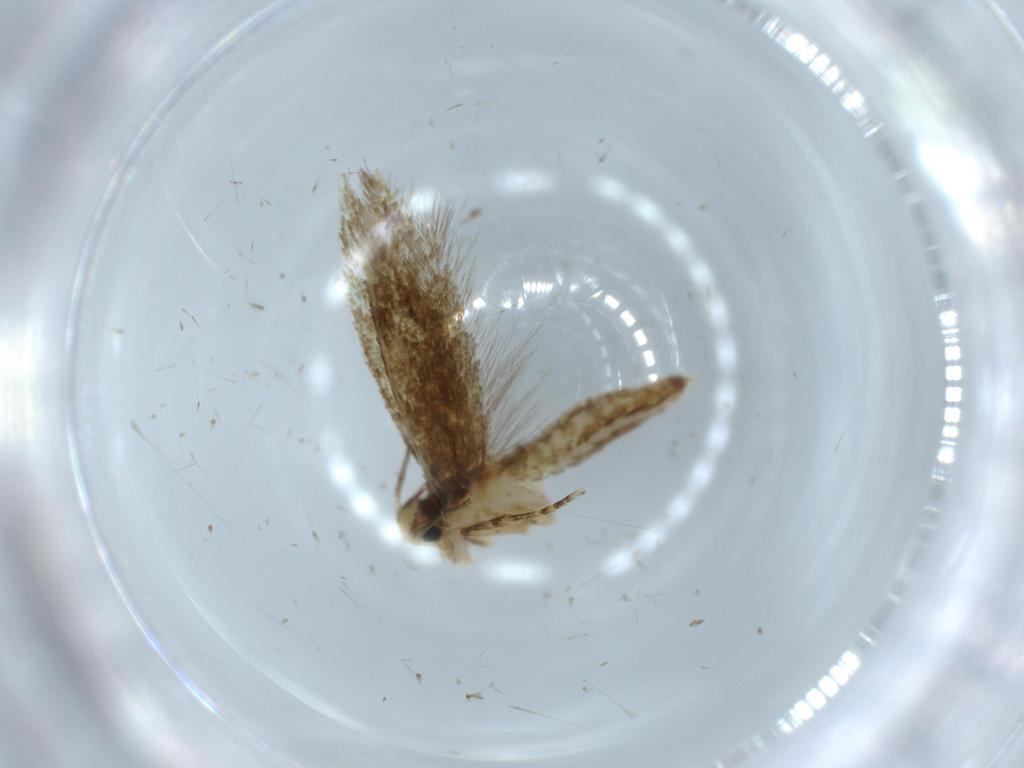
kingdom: Animalia
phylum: Arthropoda
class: Insecta
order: Lepidoptera
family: Tineidae
